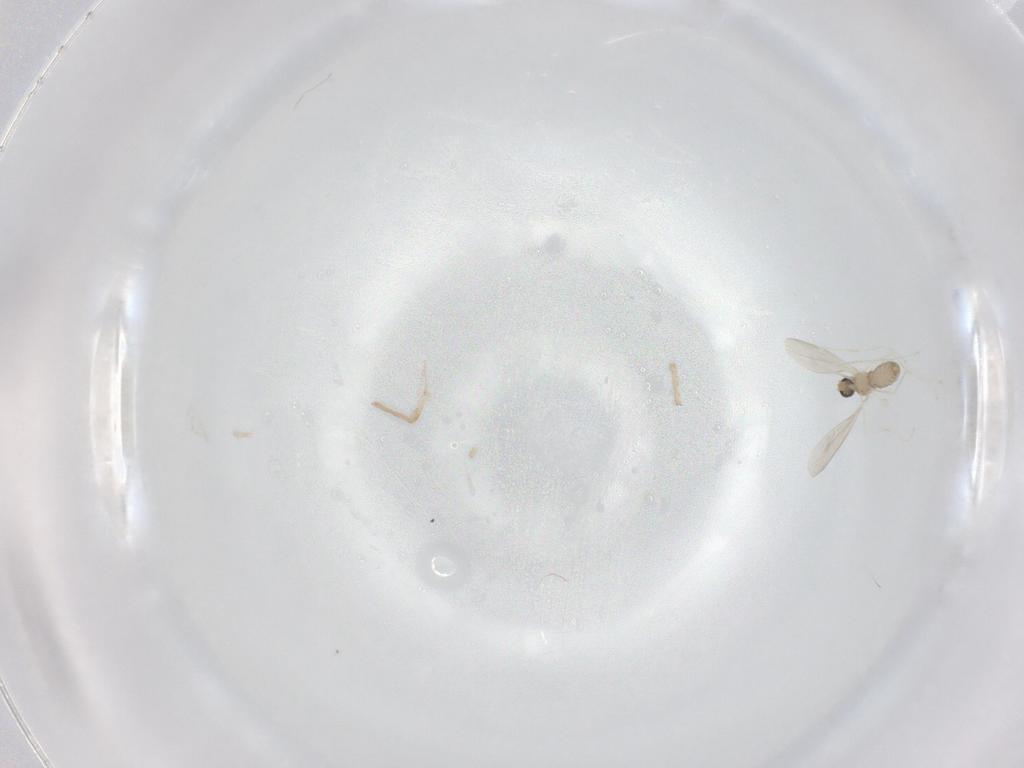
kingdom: Animalia
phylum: Arthropoda
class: Insecta
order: Diptera
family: Cecidomyiidae
